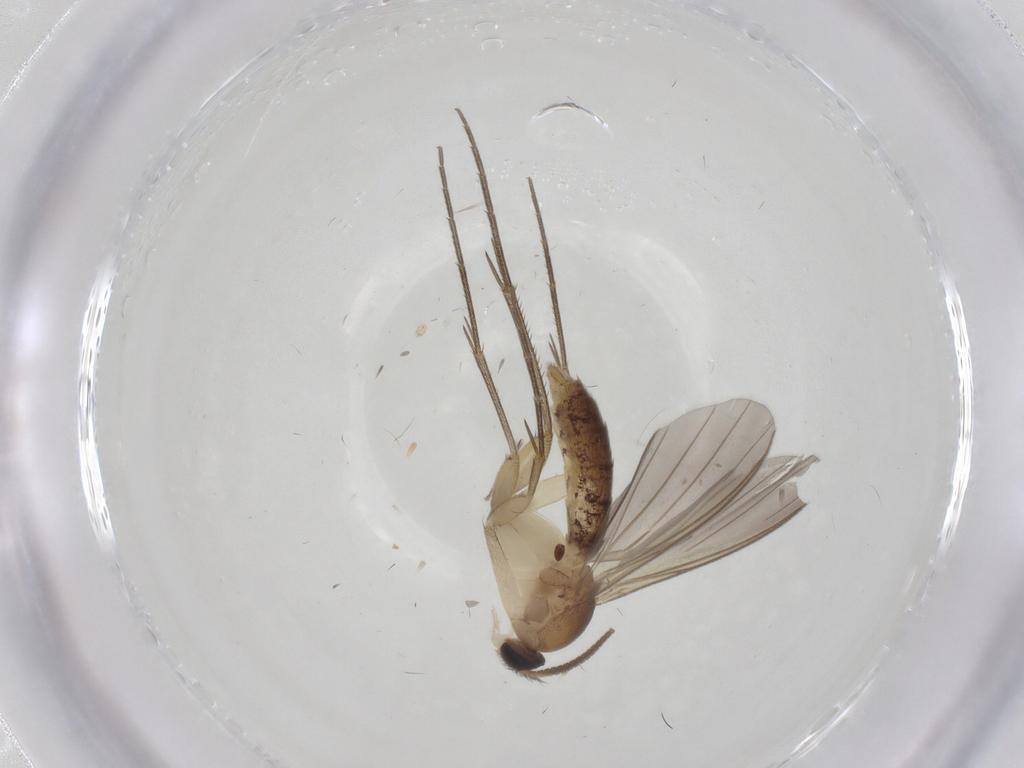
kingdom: Animalia
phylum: Arthropoda
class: Insecta
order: Diptera
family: Mycetophilidae
